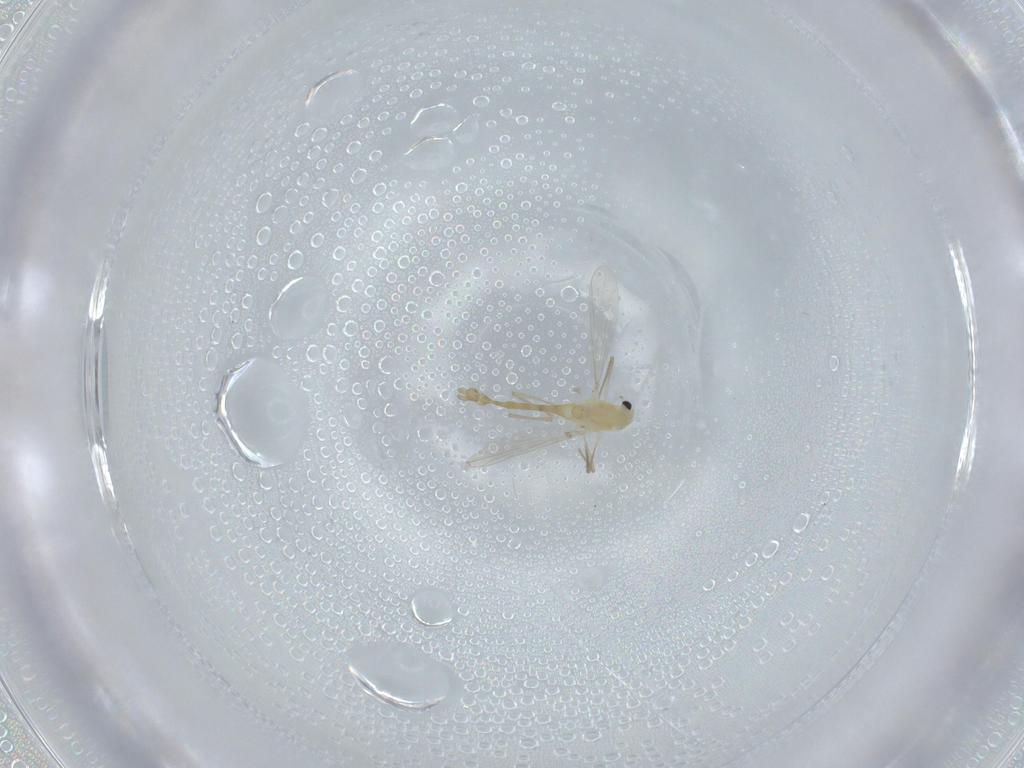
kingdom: Animalia
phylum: Arthropoda
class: Insecta
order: Diptera
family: Chironomidae
